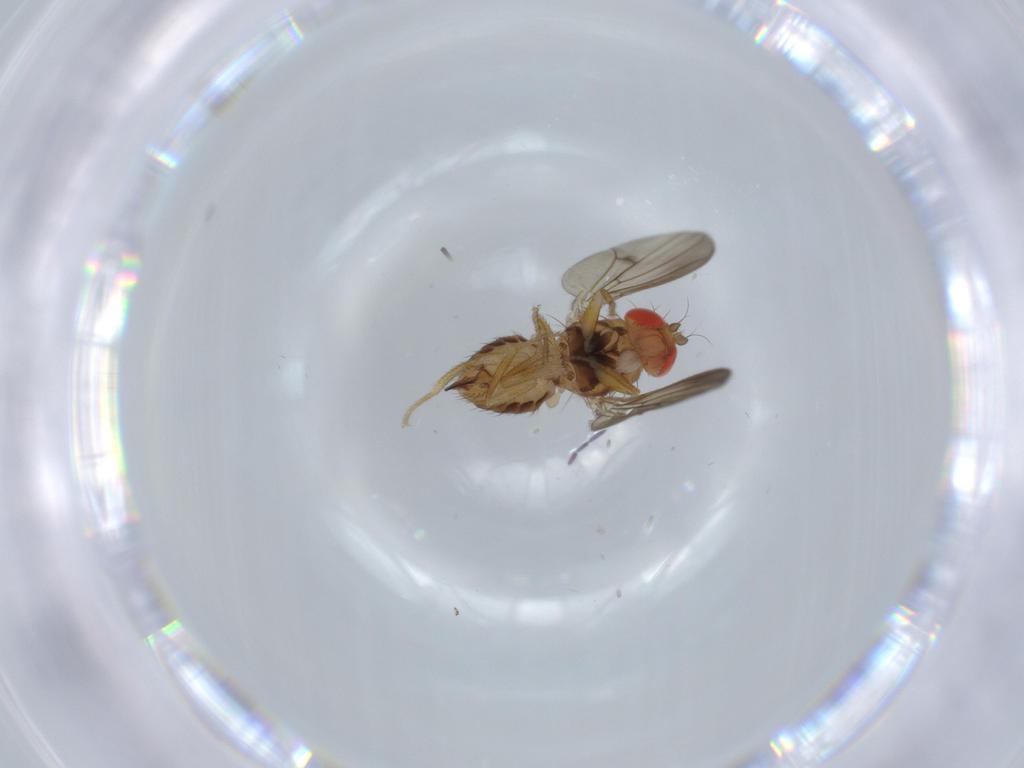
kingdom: Animalia
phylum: Arthropoda
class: Insecta
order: Diptera
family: Drosophilidae
